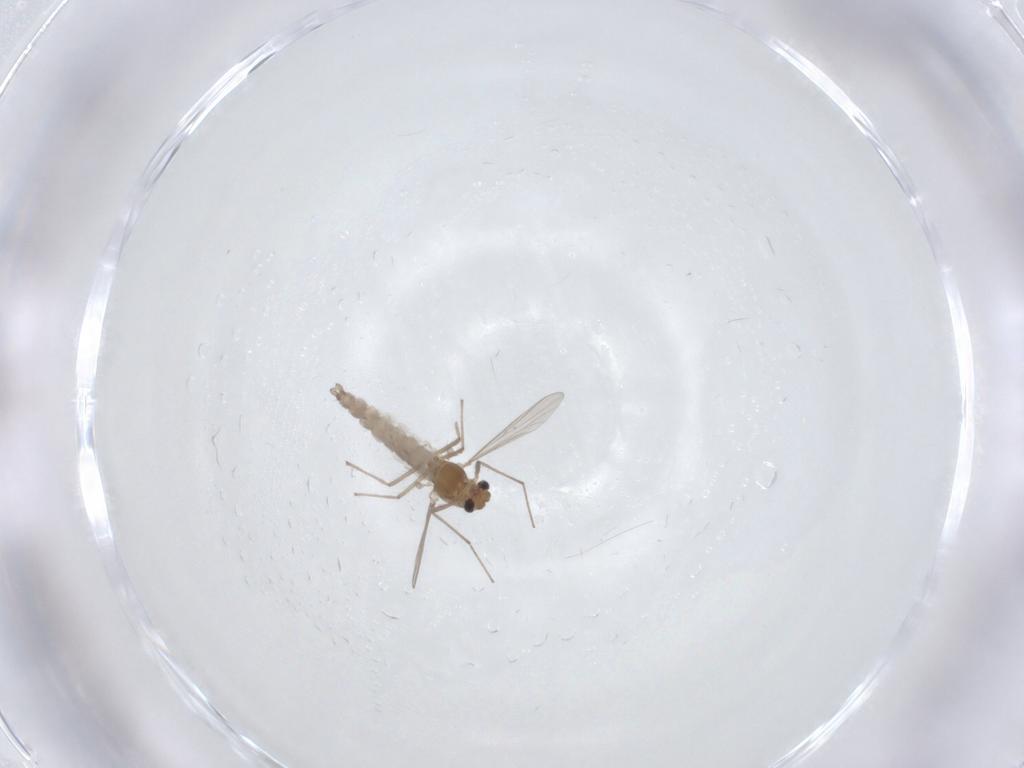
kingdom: Animalia
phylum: Arthropoda
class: Insecta
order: Diptera
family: Chironomidae
